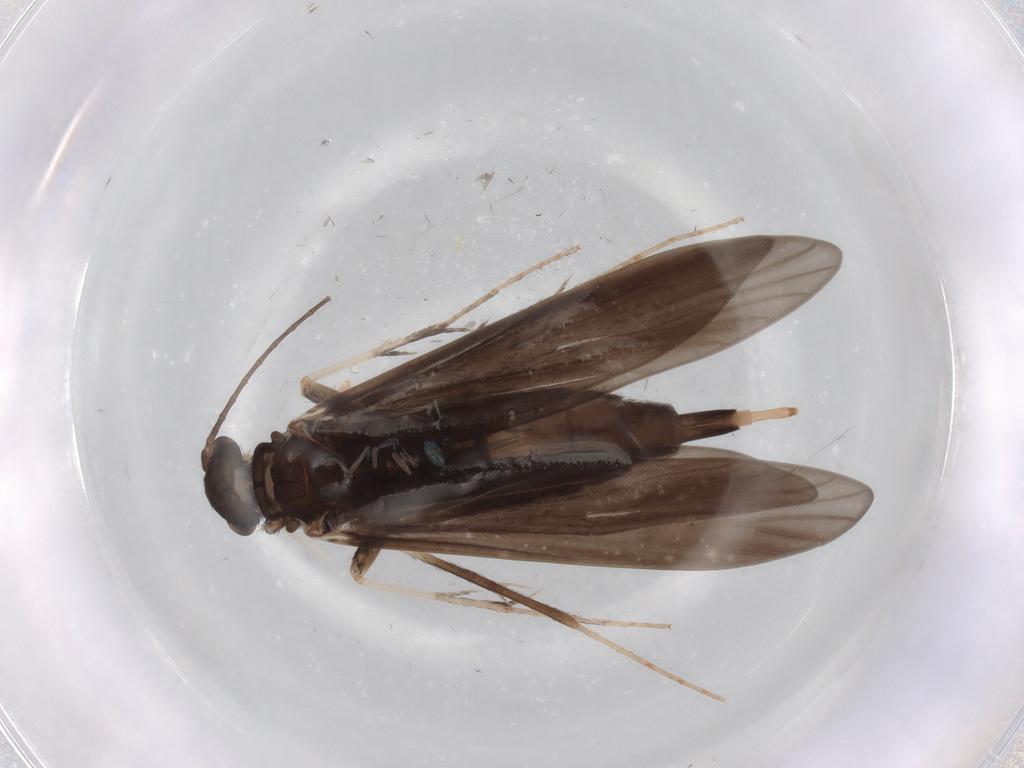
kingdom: Animalia
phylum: Arthropoda
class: Insecta
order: Trichoptera
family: Xiphocentronidae
